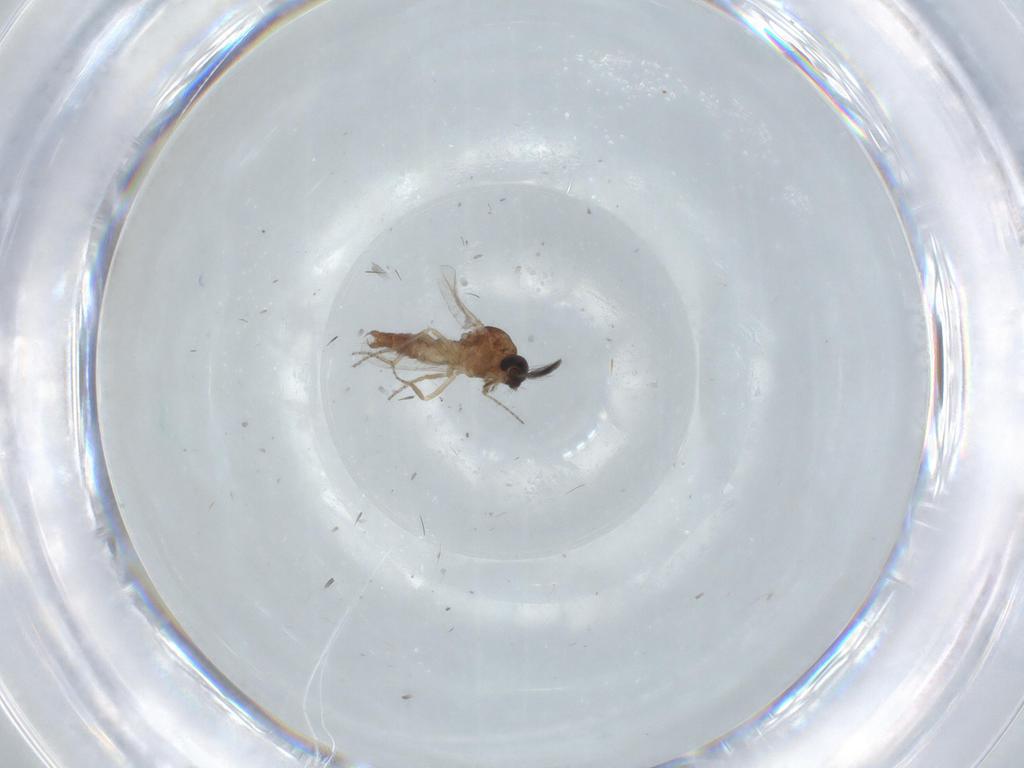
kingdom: Animalia
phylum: Arthropoda
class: Insecta
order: Diptera
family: Ceratopogonidae
